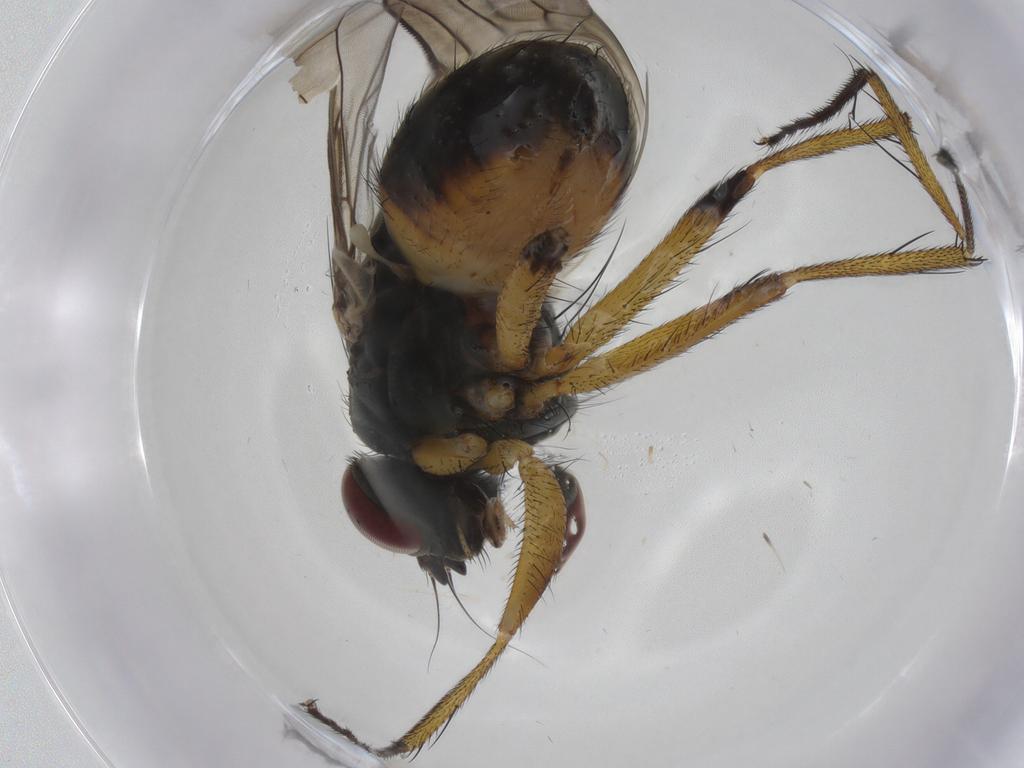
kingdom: Animalia
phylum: Arthropoda
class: Insecta
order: Diptera
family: Muscidae
